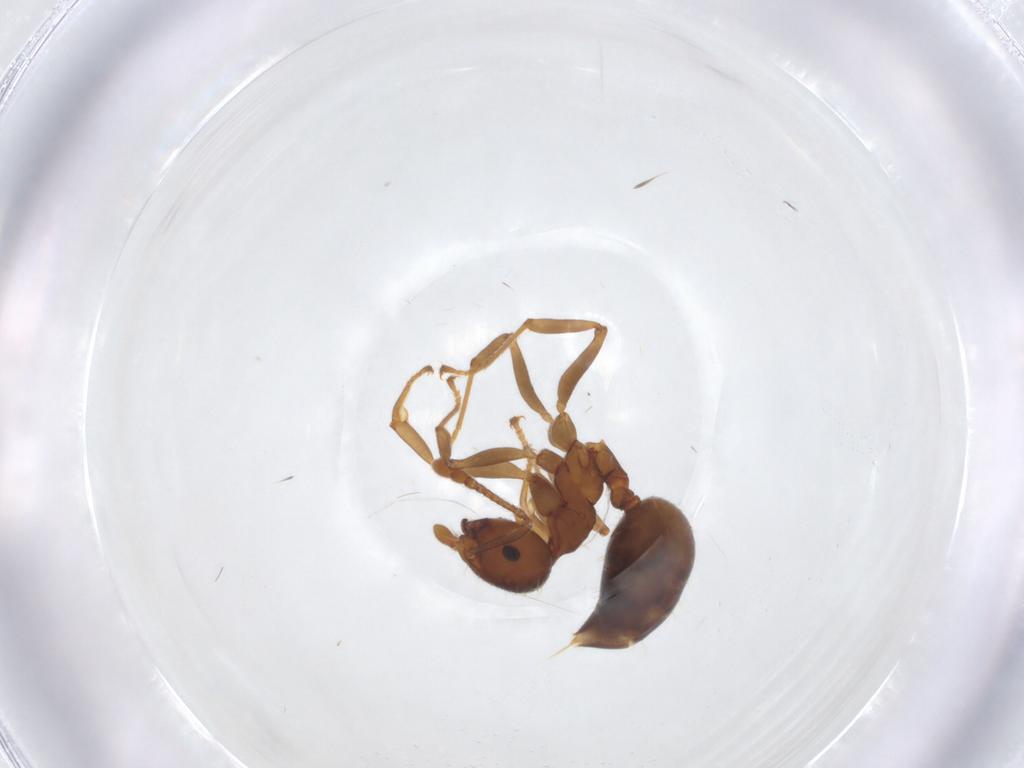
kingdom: Animalia
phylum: Arthropoda
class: Insecta
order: Hymenoptera
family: Formicidae
